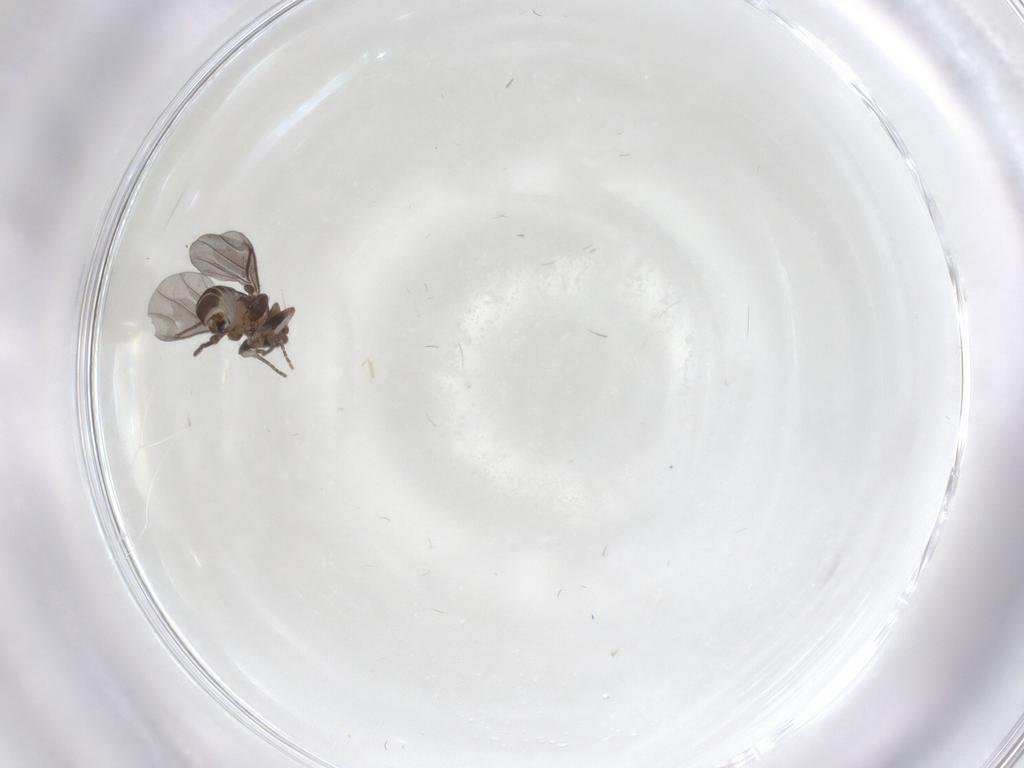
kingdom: Animalia
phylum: Arthropoda
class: Insecta
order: Diptera
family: Phoridae
